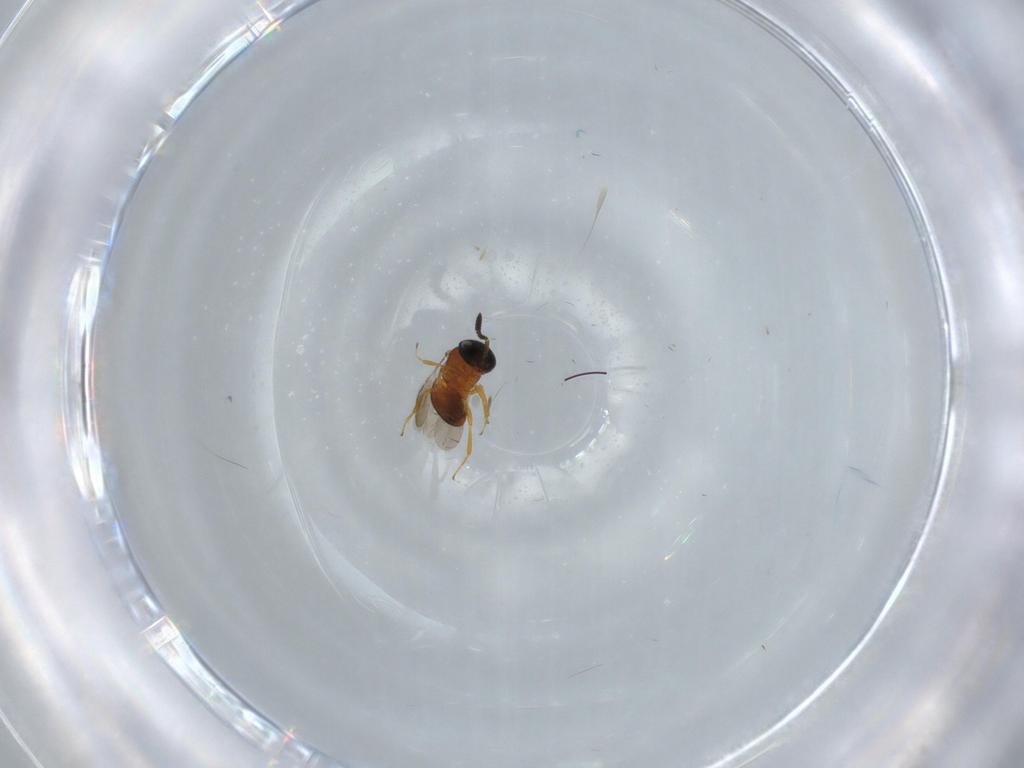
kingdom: Animalia
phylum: Arthropoda
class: Insecta
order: Hymenoptera
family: Scelionidae
